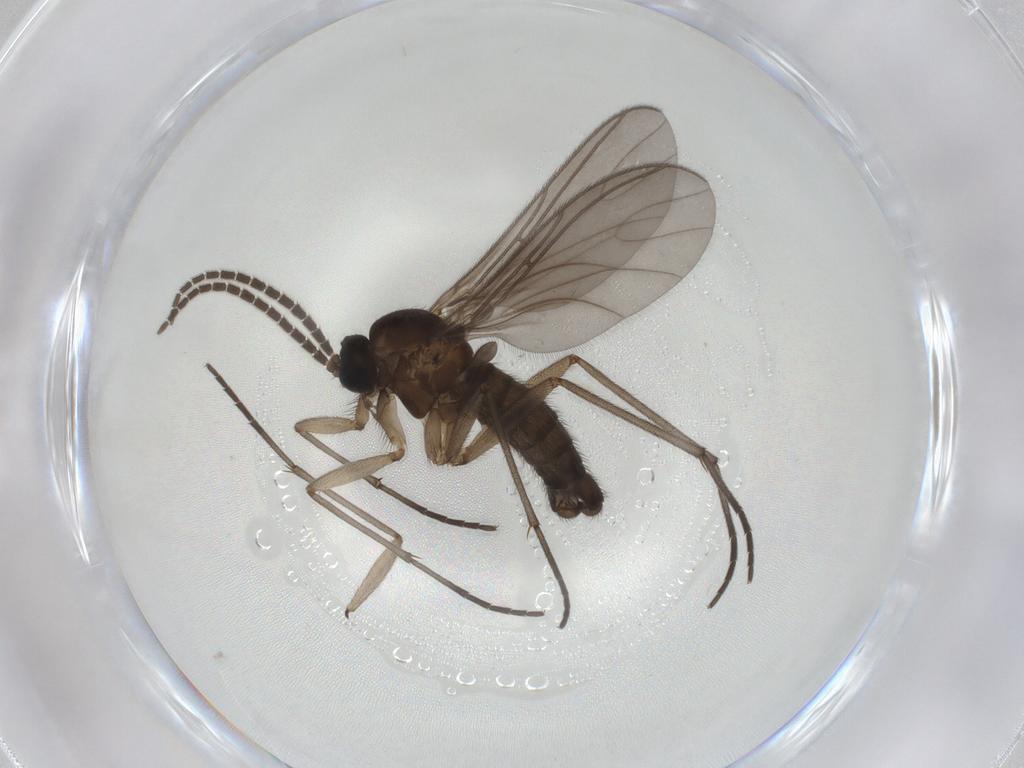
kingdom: Animalia
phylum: Arthropoda
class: Insecta
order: Diptera
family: Sciaridae
